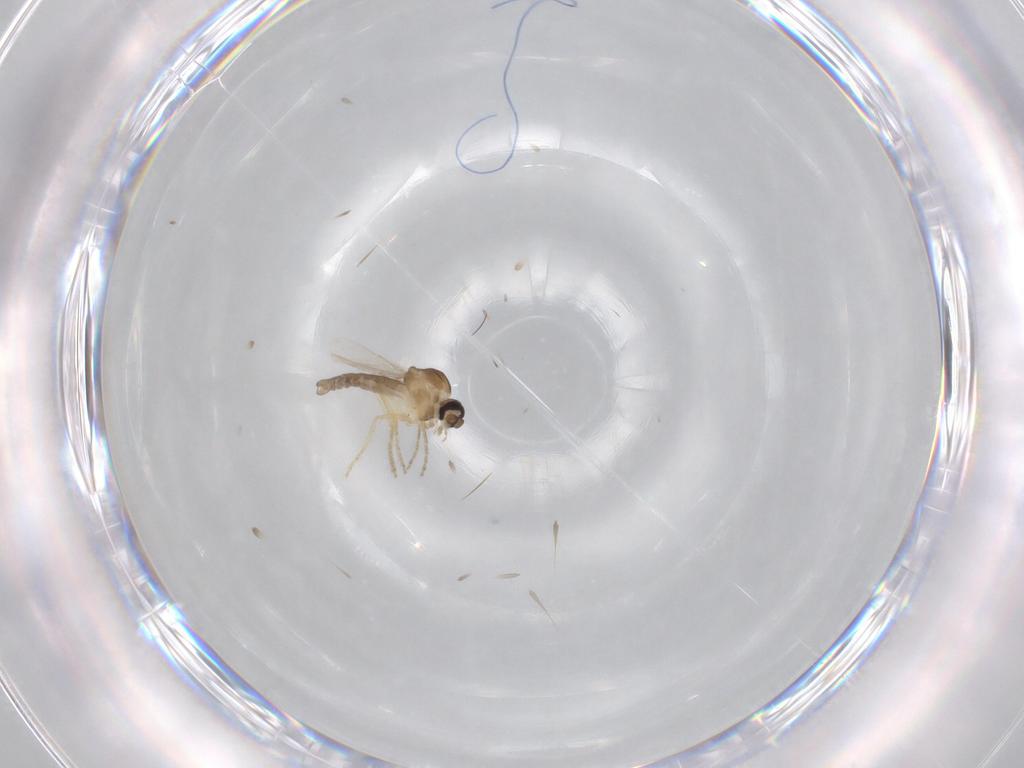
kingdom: Animalia
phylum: Arthropoda
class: Insecta
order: Diptera
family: Ceratopogonidae
